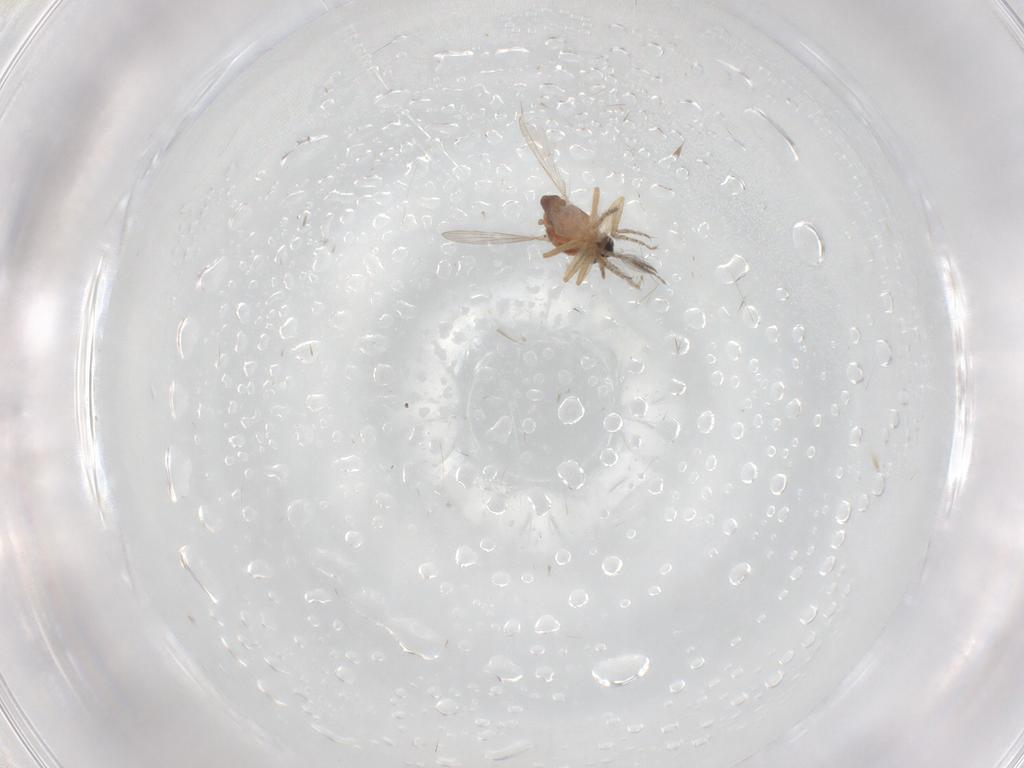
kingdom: Animalia
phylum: Arthropoda
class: Insecta
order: Diptera
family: Ceratopogonidae
